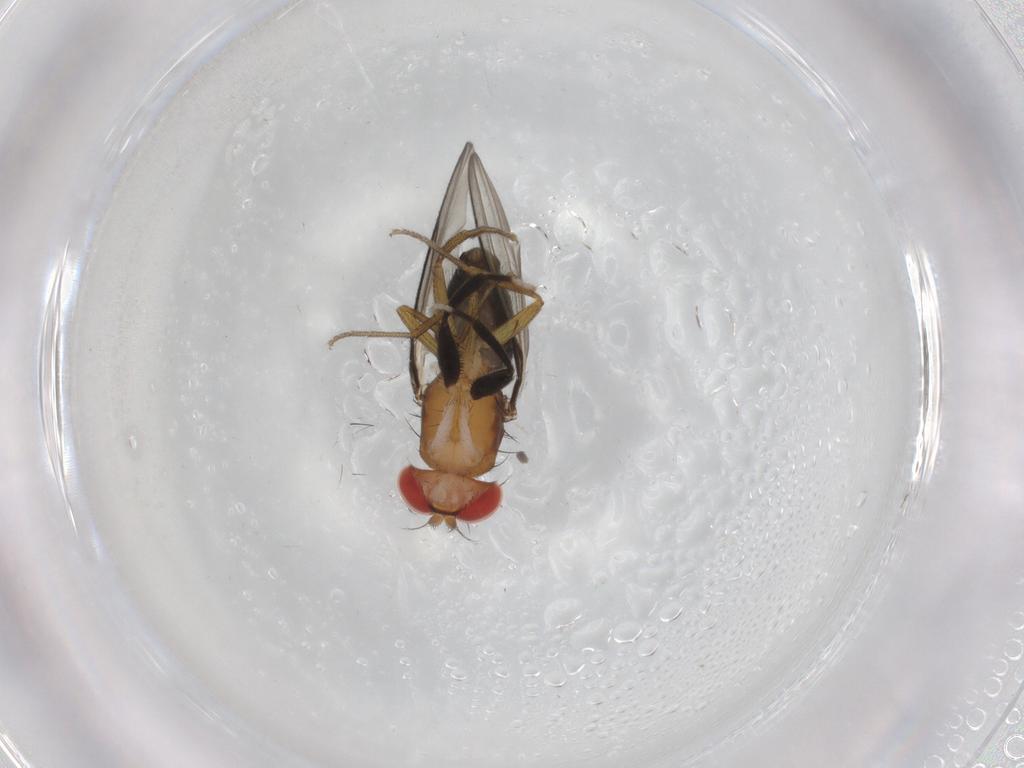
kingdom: Animalia
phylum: Arthropoda
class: Insecta
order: Diptera
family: Drosophilidae
